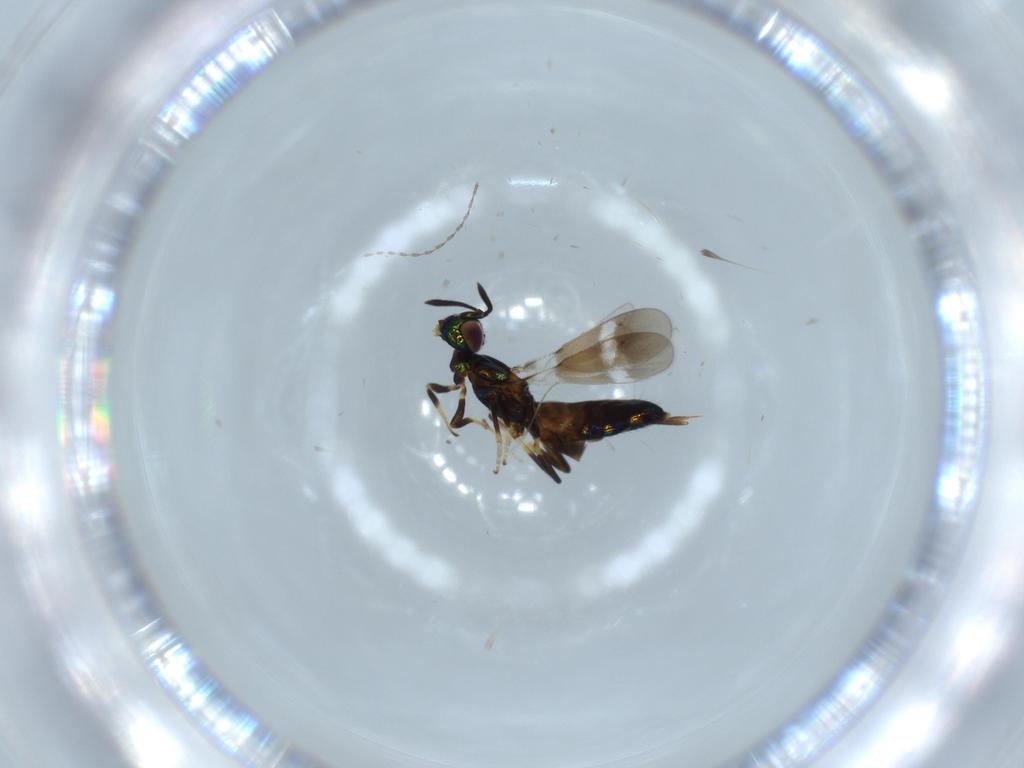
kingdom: Animalia
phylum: Arthropoda
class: Insecta
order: Hymenoptera
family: Eupelmidae
